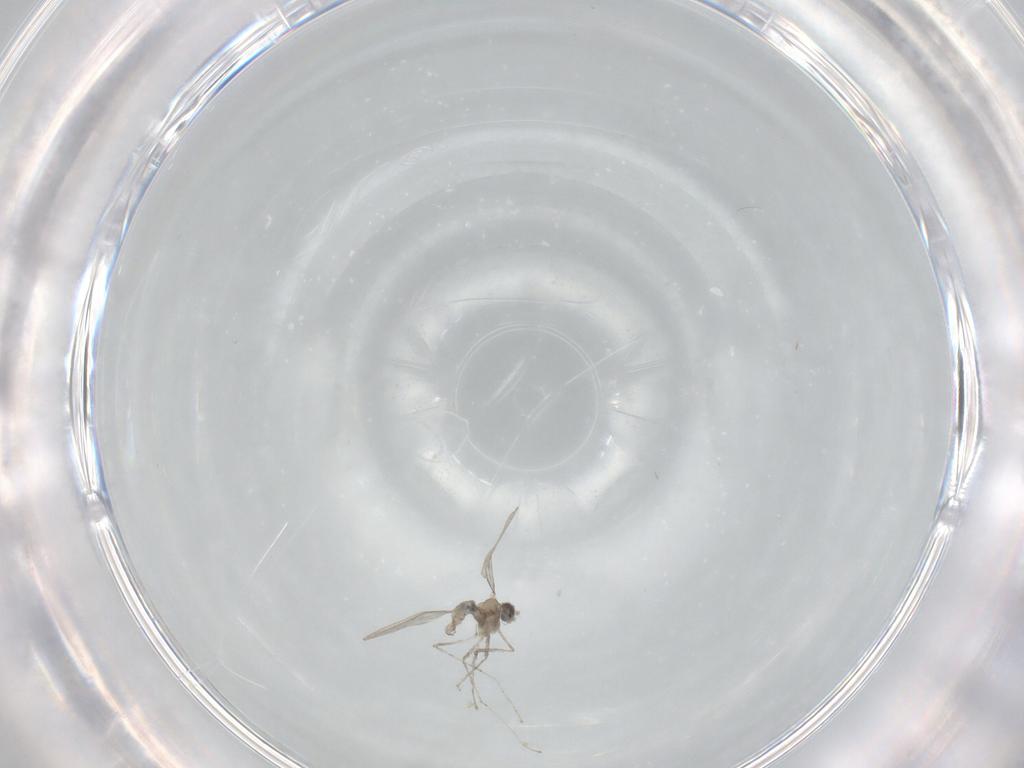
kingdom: Animalia
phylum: Arthropoda
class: Insecta
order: Diptera
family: Cecidomyiidae
